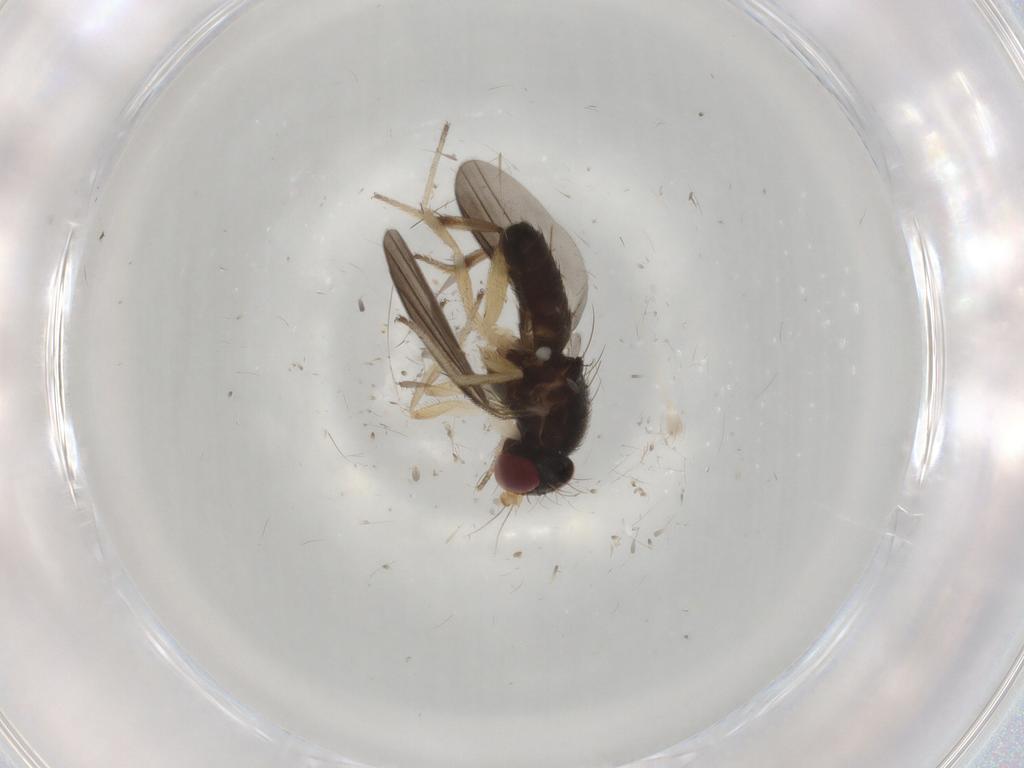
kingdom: Animalia
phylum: Arthropoda
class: Insecta
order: Diptera
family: Clusiidae
